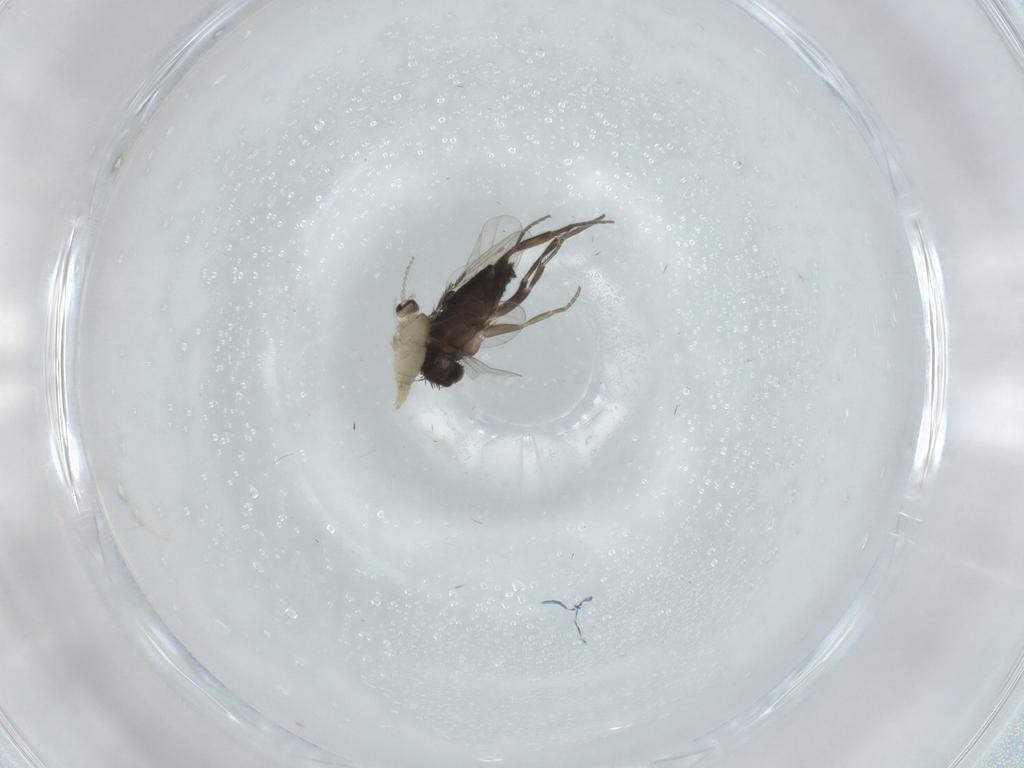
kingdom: Animalia
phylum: Arthropoda
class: Insecta
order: Diptera
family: Cecidomyiidae
